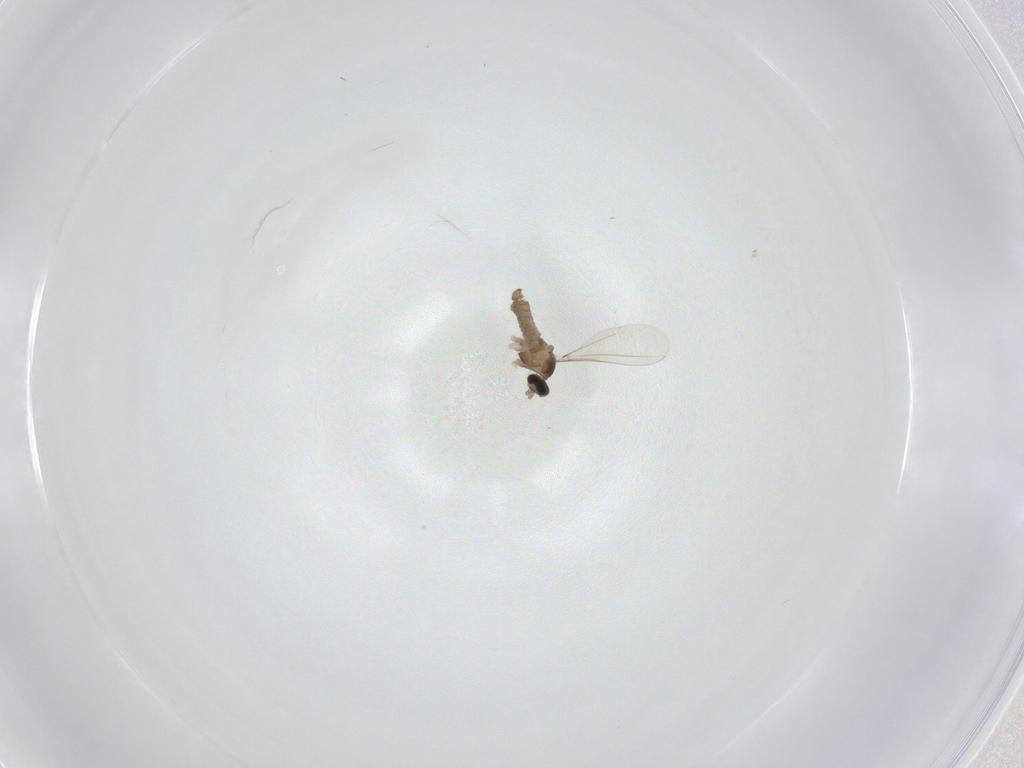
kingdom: Animalia
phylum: Arthropoda
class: Insecta
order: Diptera
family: Cecidomyiidae
